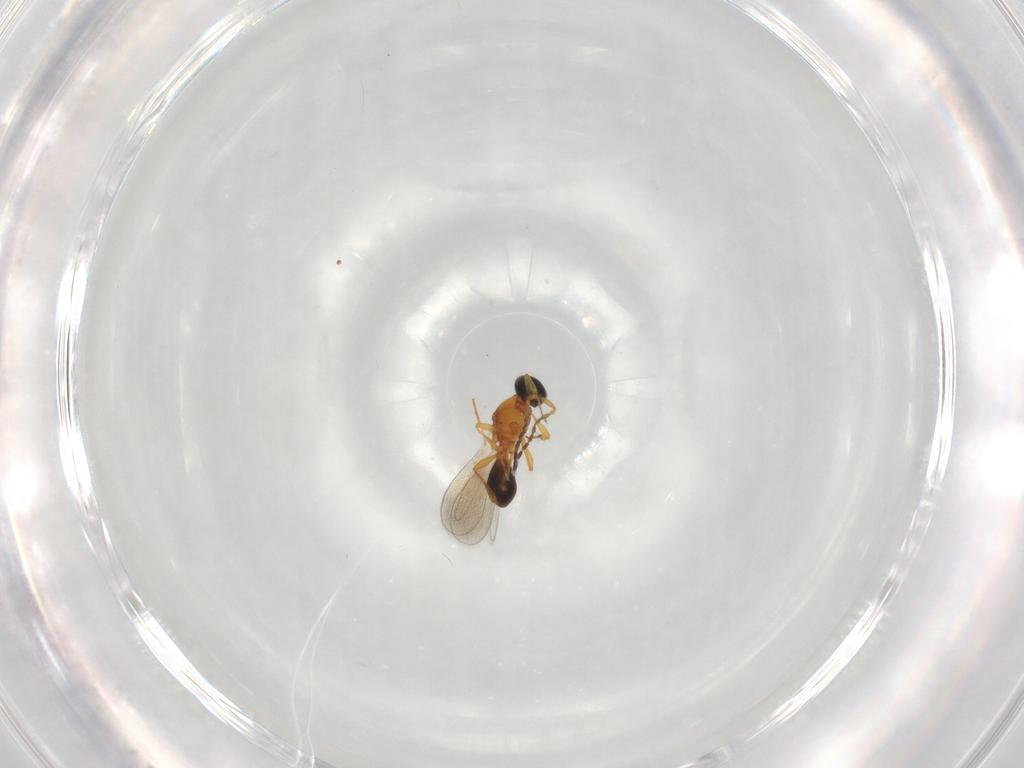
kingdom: Animalia
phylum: Arthropoda
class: Insecta
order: Hymenoptera
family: Platygastridae
